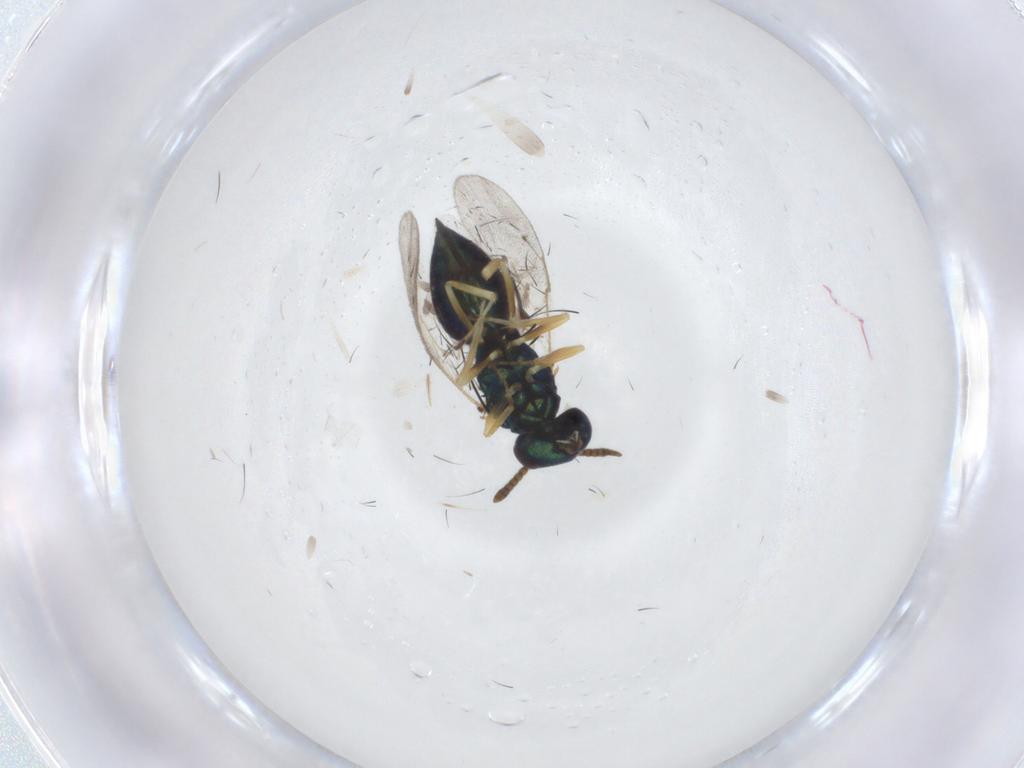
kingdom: Animalia
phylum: Arthropoda
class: Insecta
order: Hymenoptera
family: Pteromalidae
